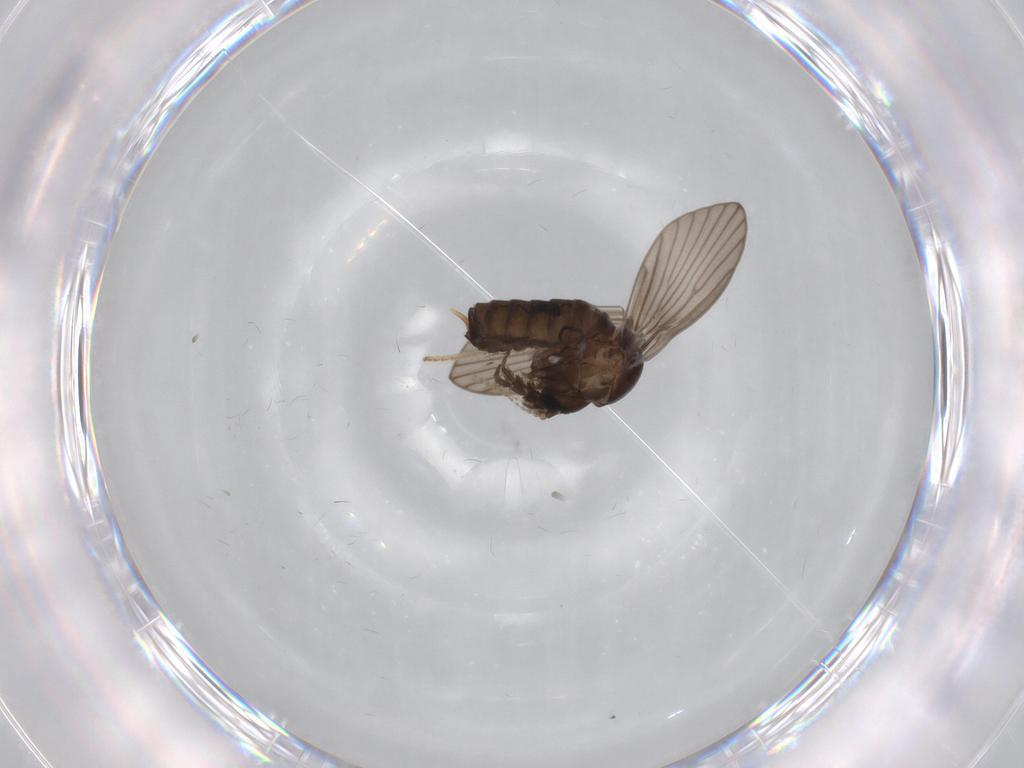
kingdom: Animalia
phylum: Arthropoda
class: Insecta
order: Diptera
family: Psychodidae
